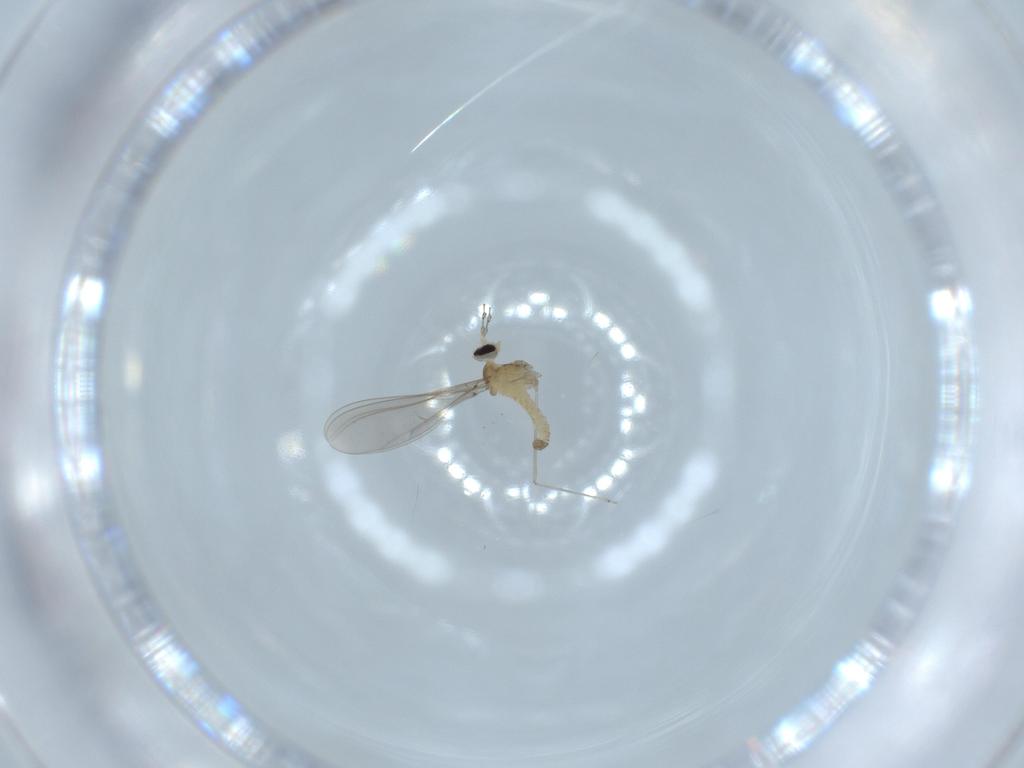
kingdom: Animalia
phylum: Arthropoda
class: Insecta
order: Diptera
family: Cecidomyiidae
